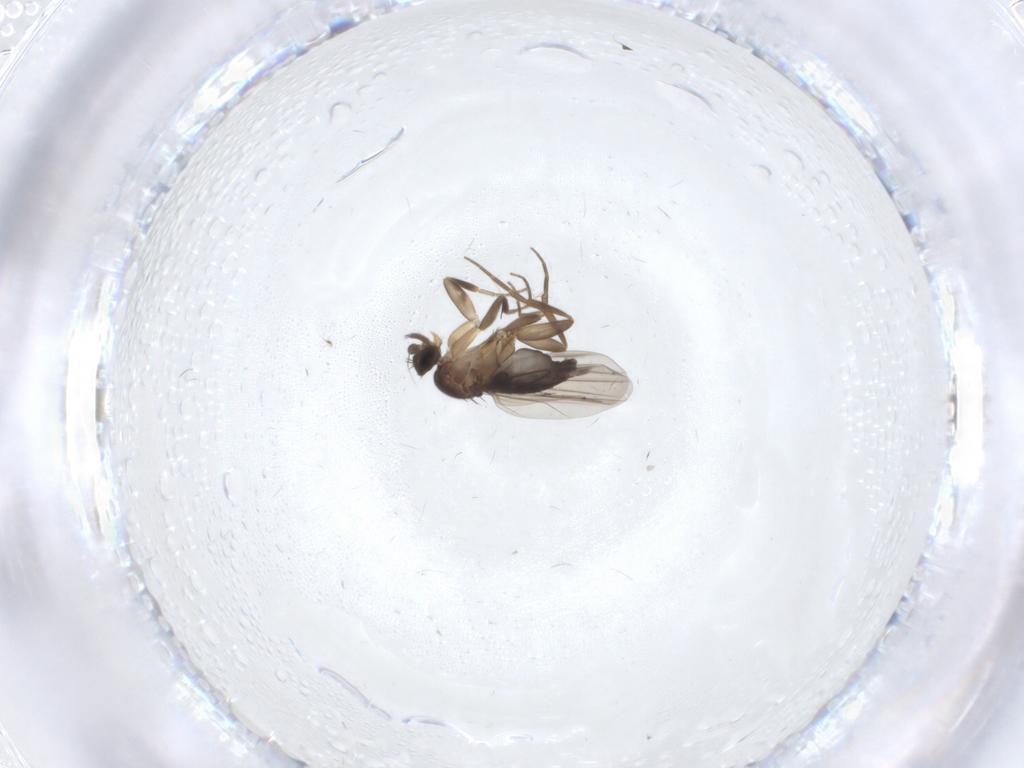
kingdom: Animalia
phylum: Arthropoda
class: Insecta
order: Diptera
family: Phoridae
